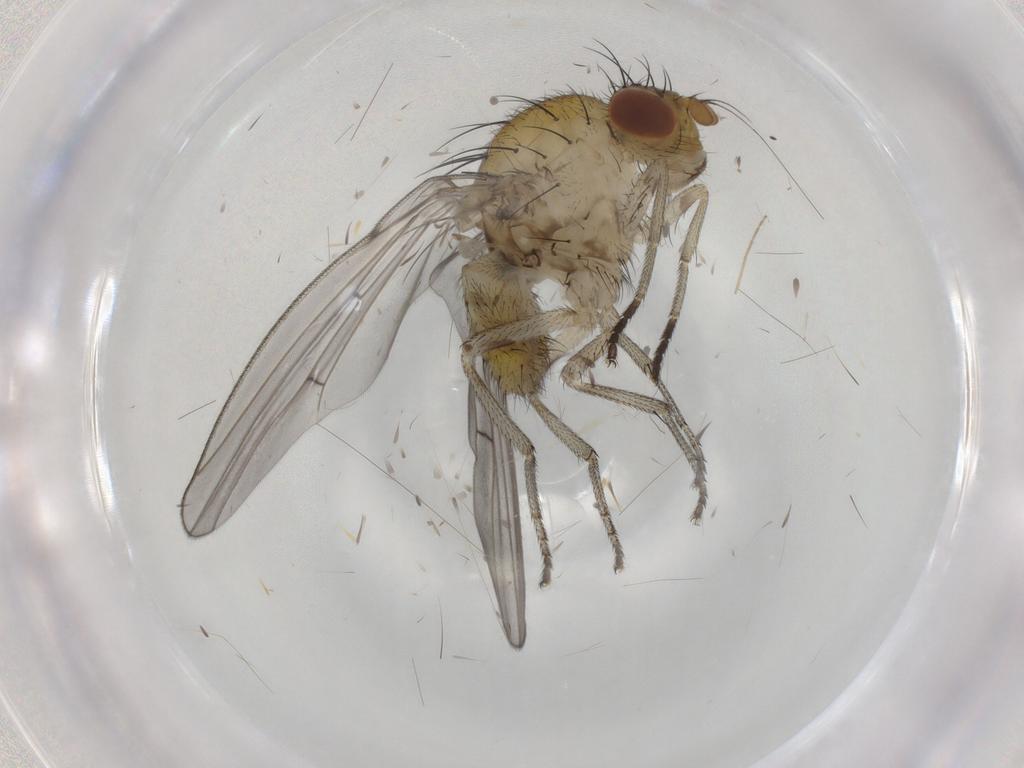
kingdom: Animalia
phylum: Arthropoda
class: Insecta
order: Diptera
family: Lauxaniidae
